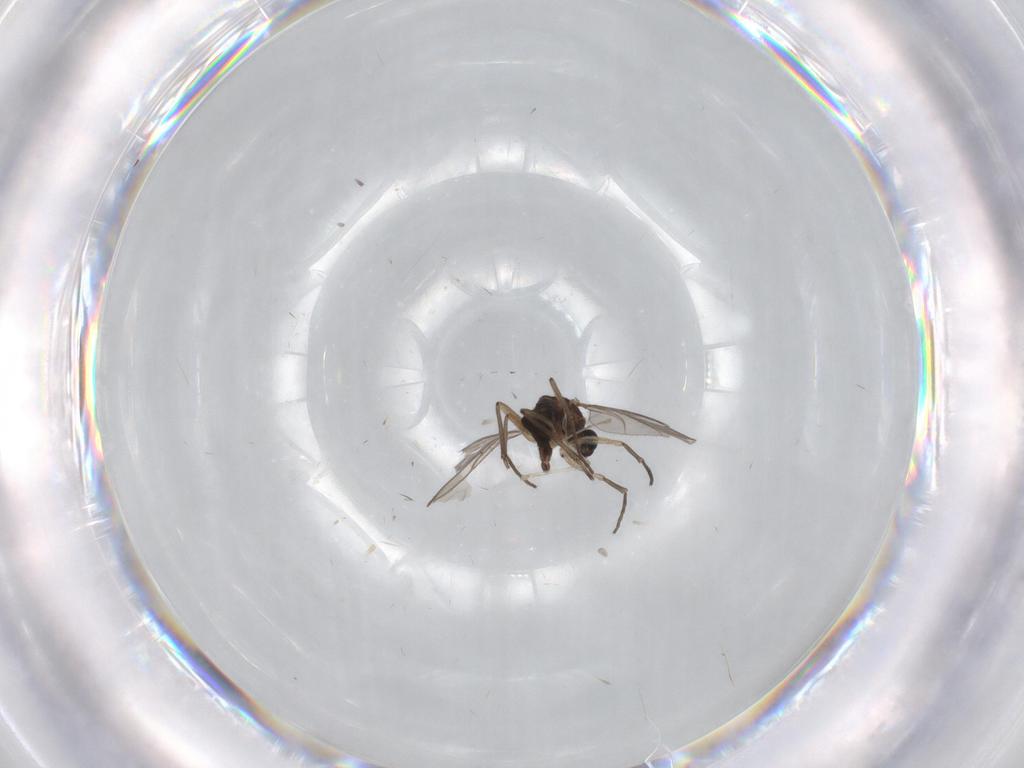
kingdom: Animalia
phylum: Arthropoda
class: Insecta
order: Diptera
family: Sciaridae
